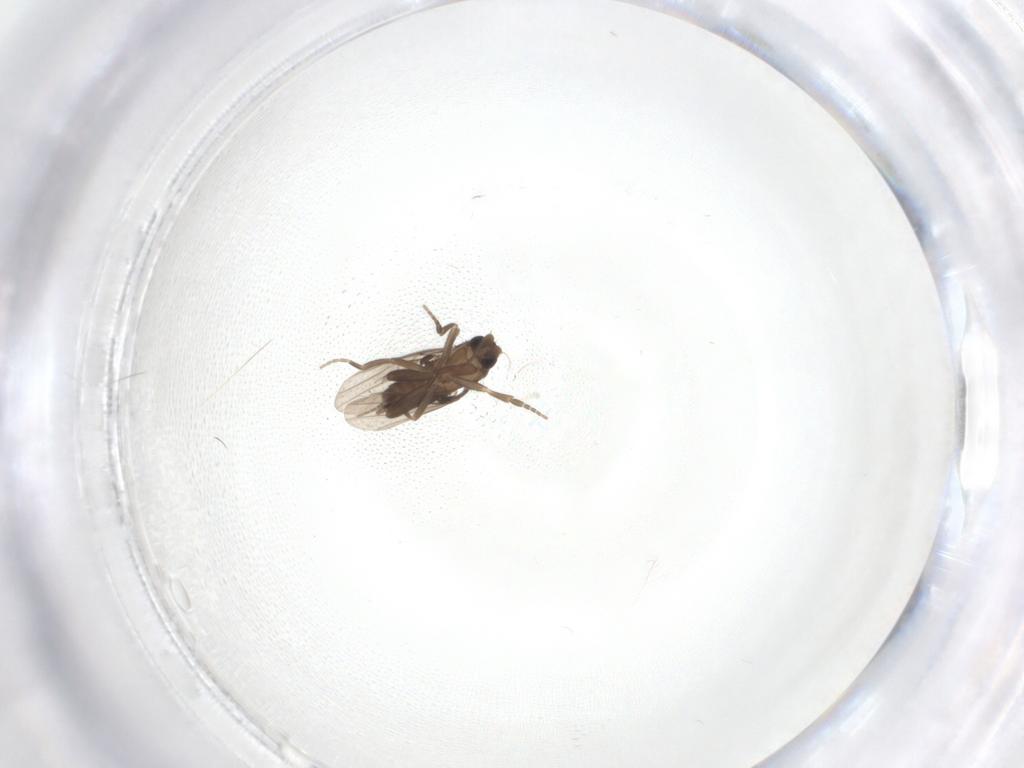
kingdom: Animalia
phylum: Arthropoda
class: Insecta
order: Diptera
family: Phoridae
